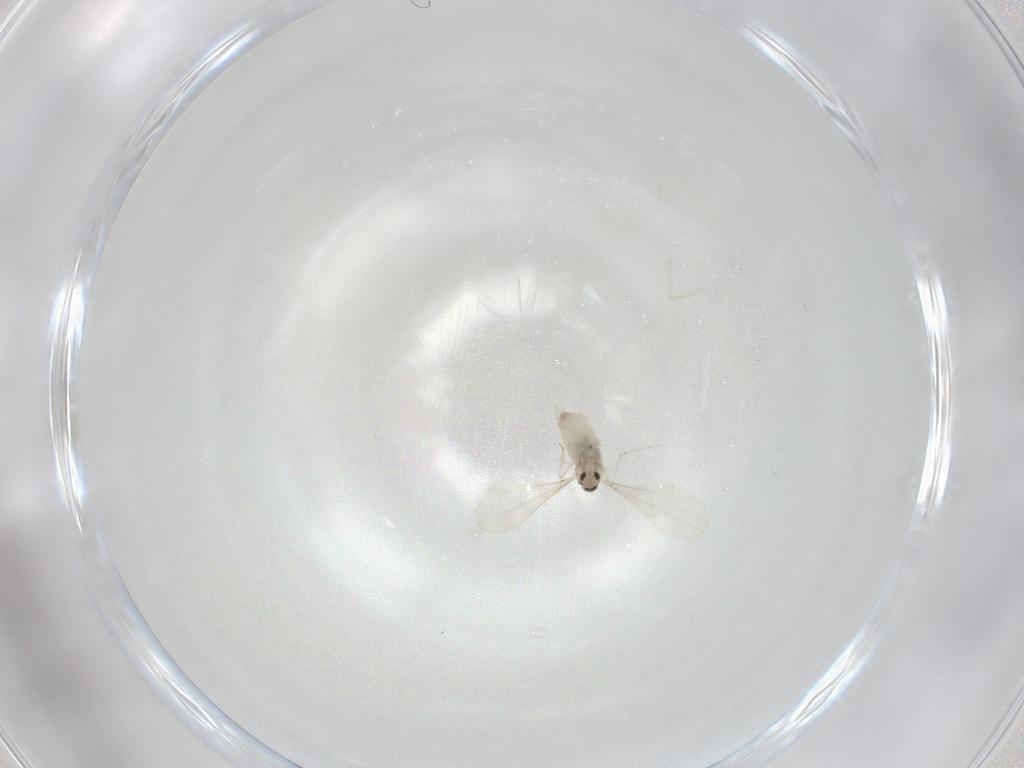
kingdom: Animalia
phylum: Arthropoda
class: Insecta
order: Diptera
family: Cecidomyiidae
